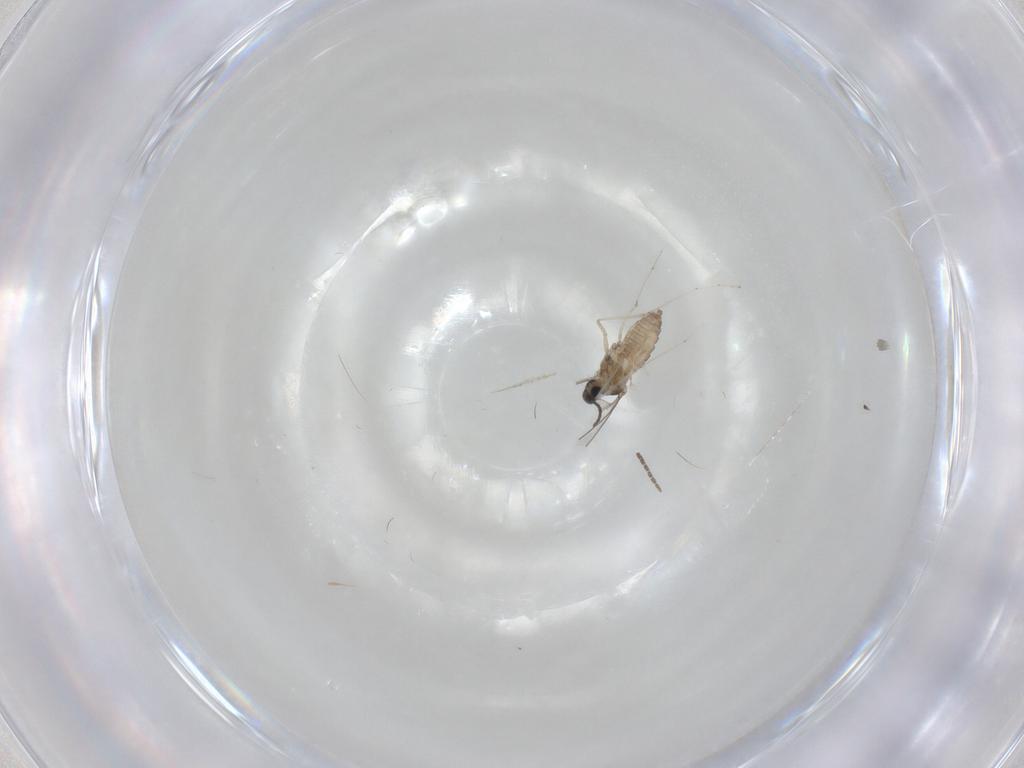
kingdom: Animalia
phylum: Arthropoda
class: Insecta
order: Diptera
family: Cecidomyiidae
